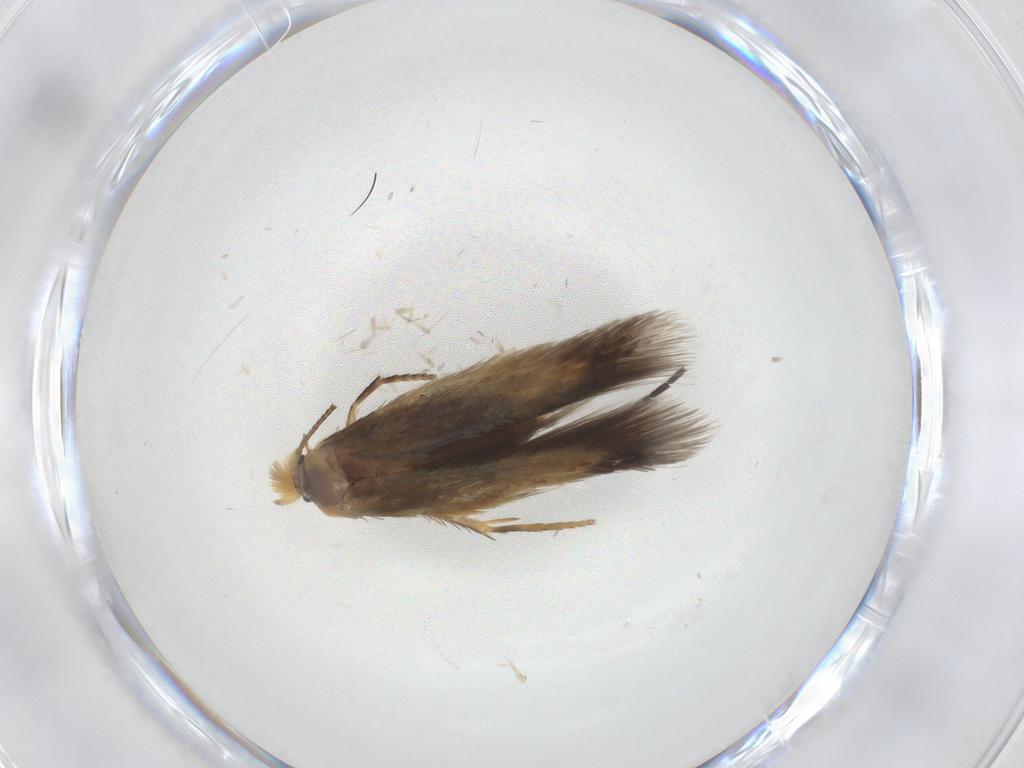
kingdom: Animalia
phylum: Arthropoda
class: Insecta
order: Lepidoptera
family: Nepticulidae
